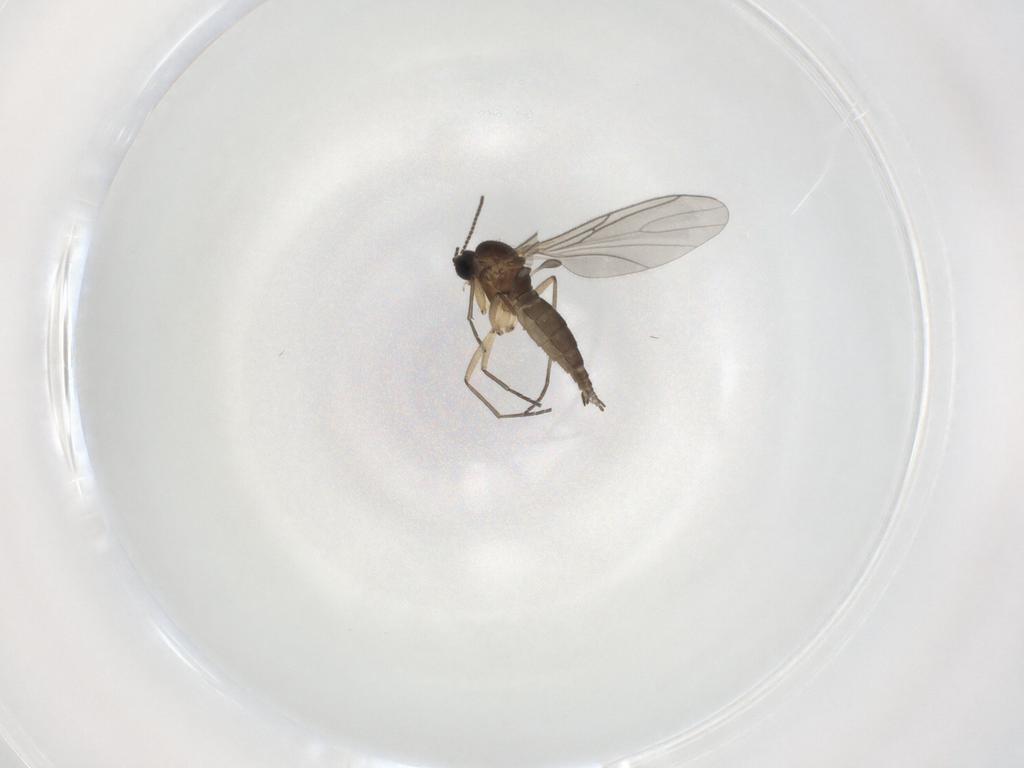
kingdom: Animalia
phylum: Arthropoda
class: Insecta
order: Diptera
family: Sciaridae
